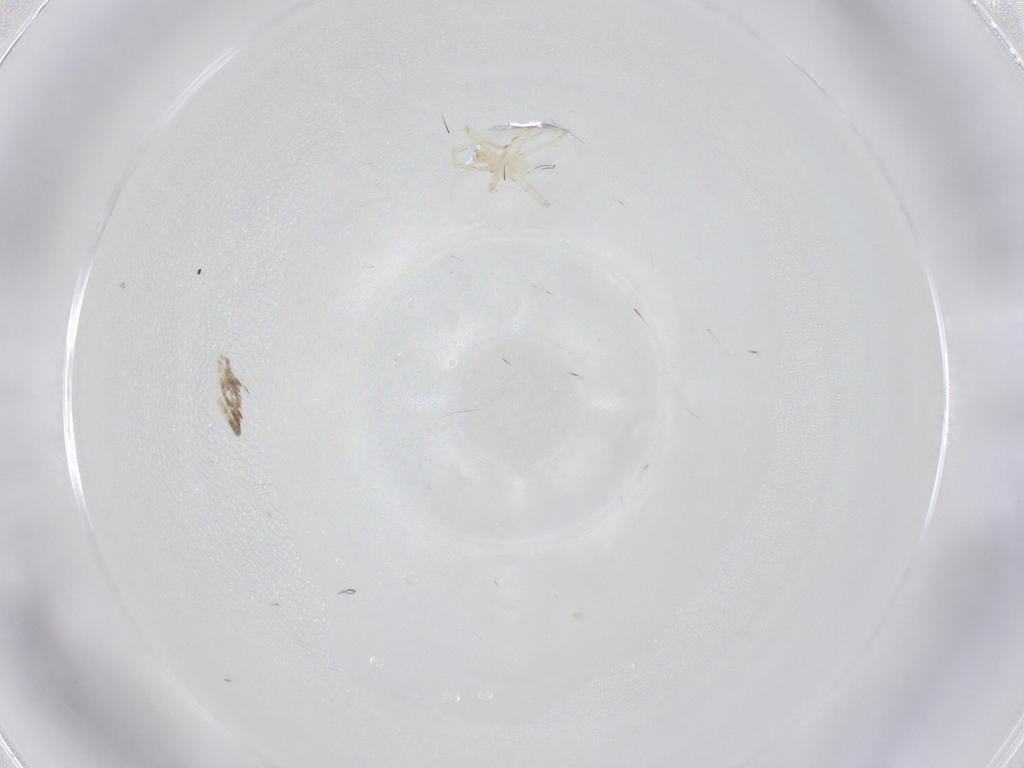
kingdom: Animalia
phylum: Arthropoda
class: Arachnida
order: Trombidiformes
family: Erythraeidae
